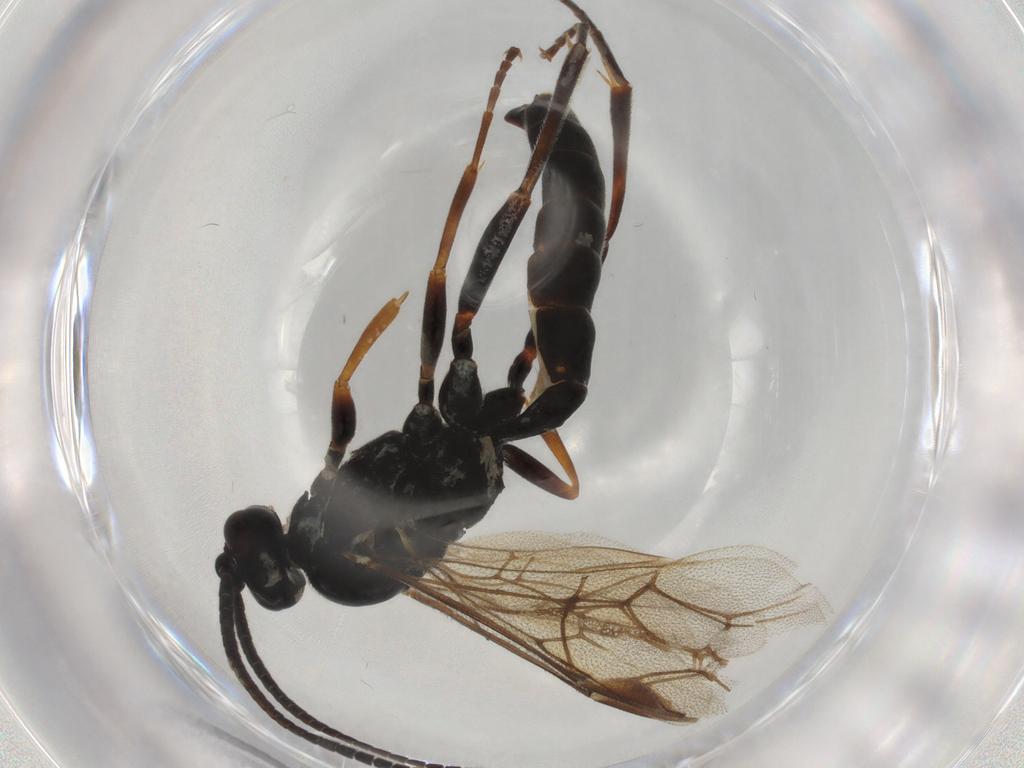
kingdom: Animalia
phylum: Arthropoda
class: Insecta
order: Hymenoptera
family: Ichneumonidae
